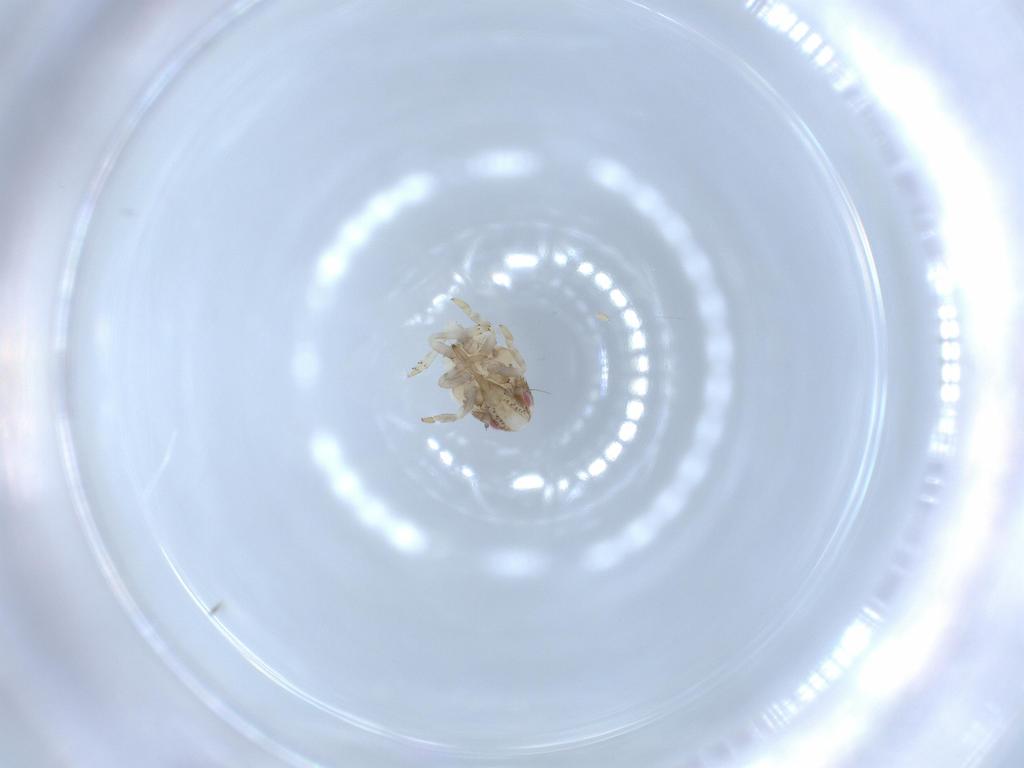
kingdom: Animalia
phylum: Arthropoda
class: Insecta
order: Hemiptera
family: Acanaloniidae
